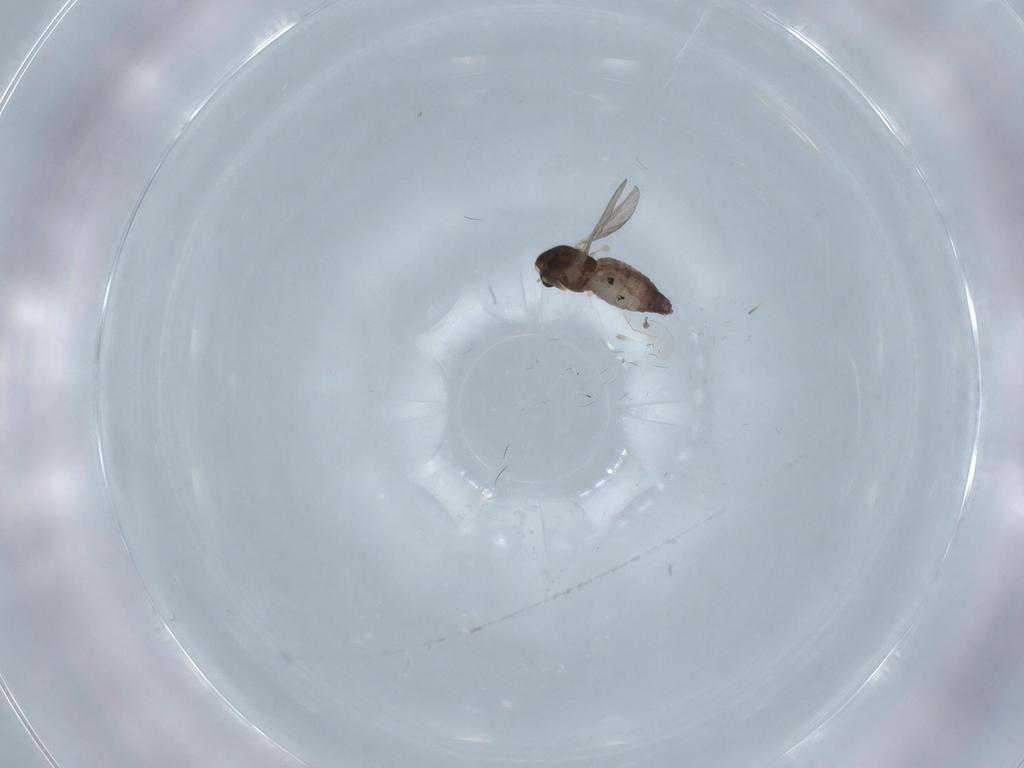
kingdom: Animalia
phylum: Arthropoda
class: Insecta
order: Diptera
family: Chironomidae
